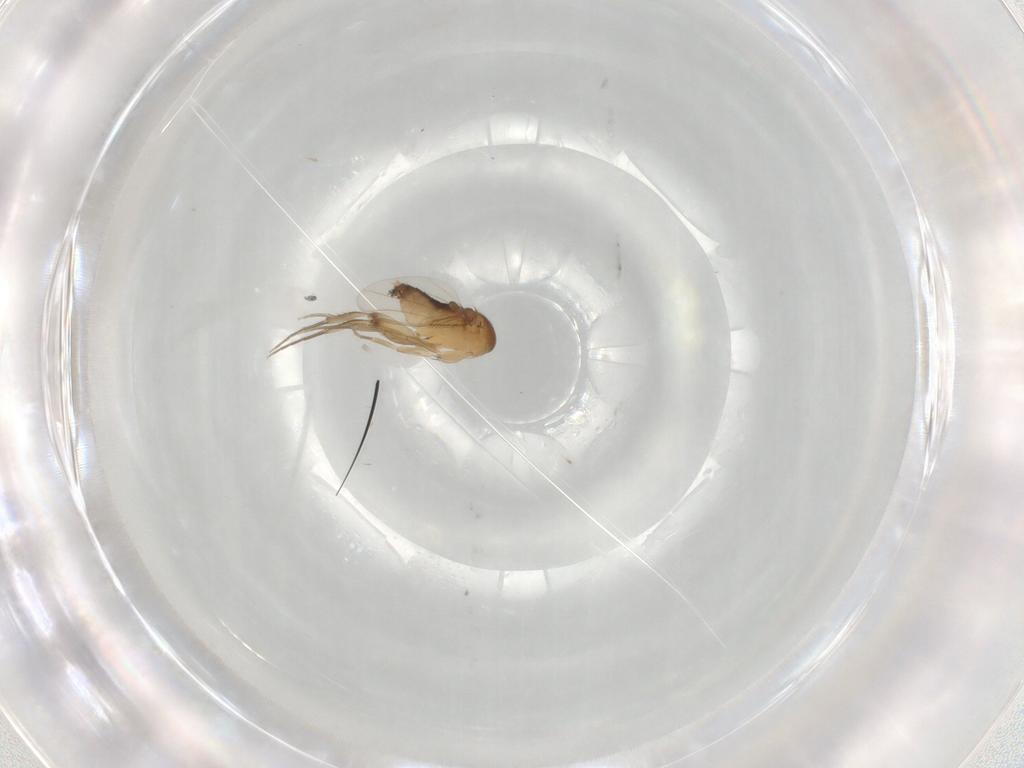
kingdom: Animalia
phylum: Arthropoda
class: Insecta
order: Diptera
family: Phoridae
